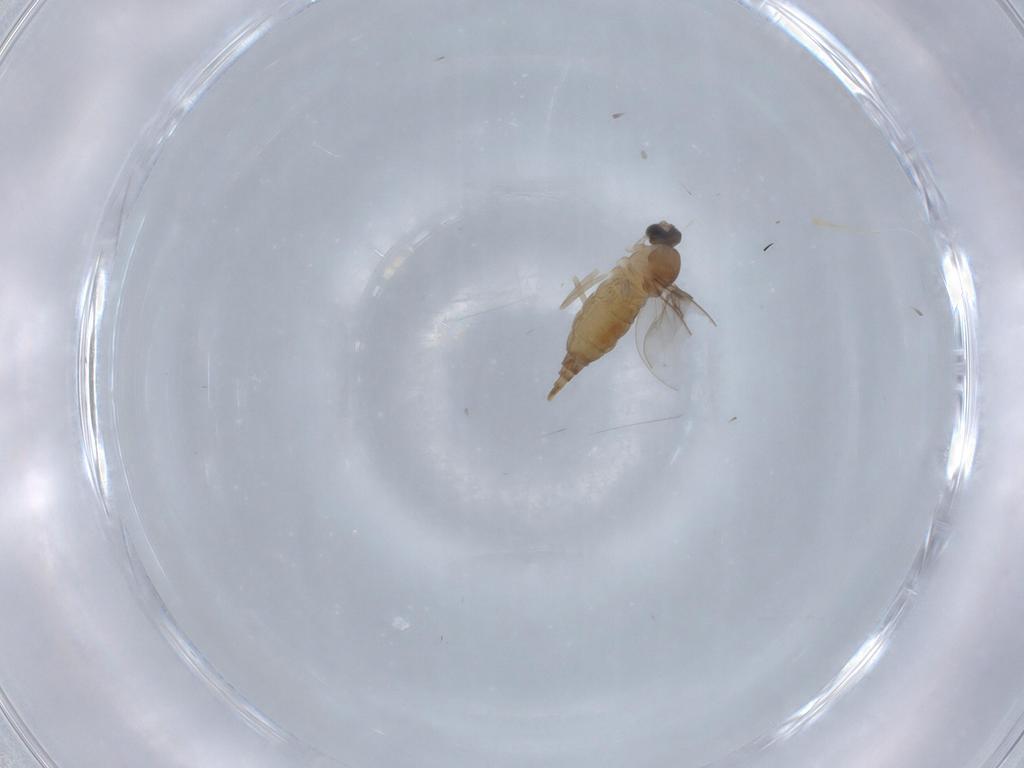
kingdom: Animalia
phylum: Arthropoda
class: Insecta
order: Diptera
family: Cecidomyiidae
